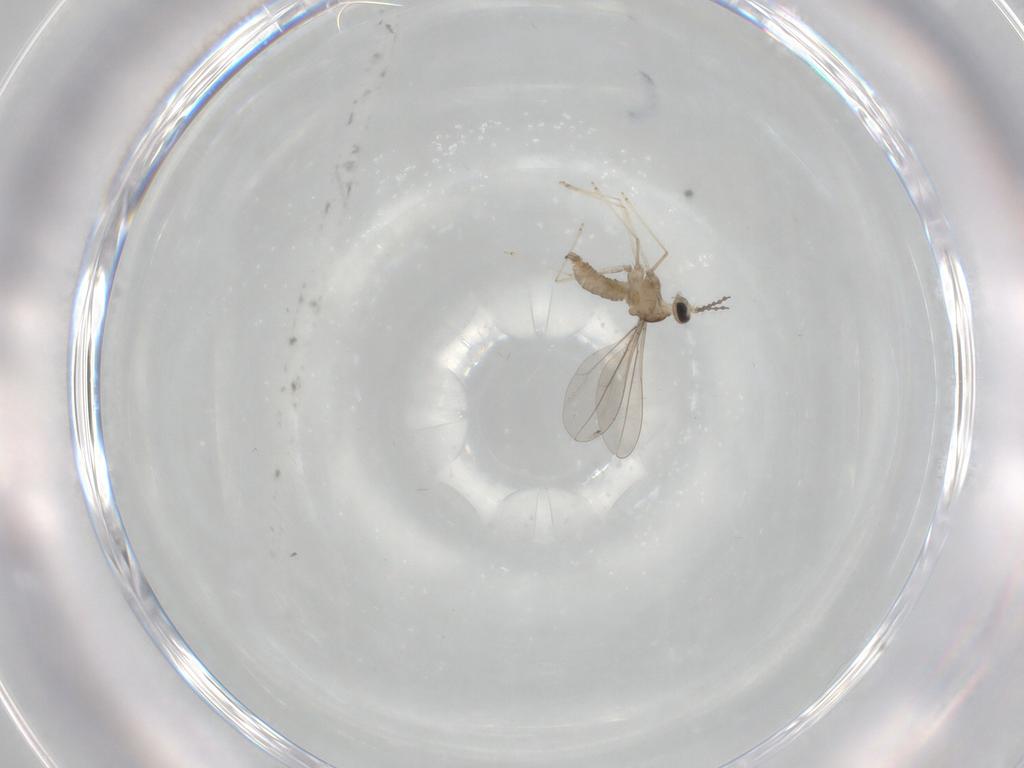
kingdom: Animalia
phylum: Arthropoda
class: Insecta
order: Diptera
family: Cecidomyiidae
